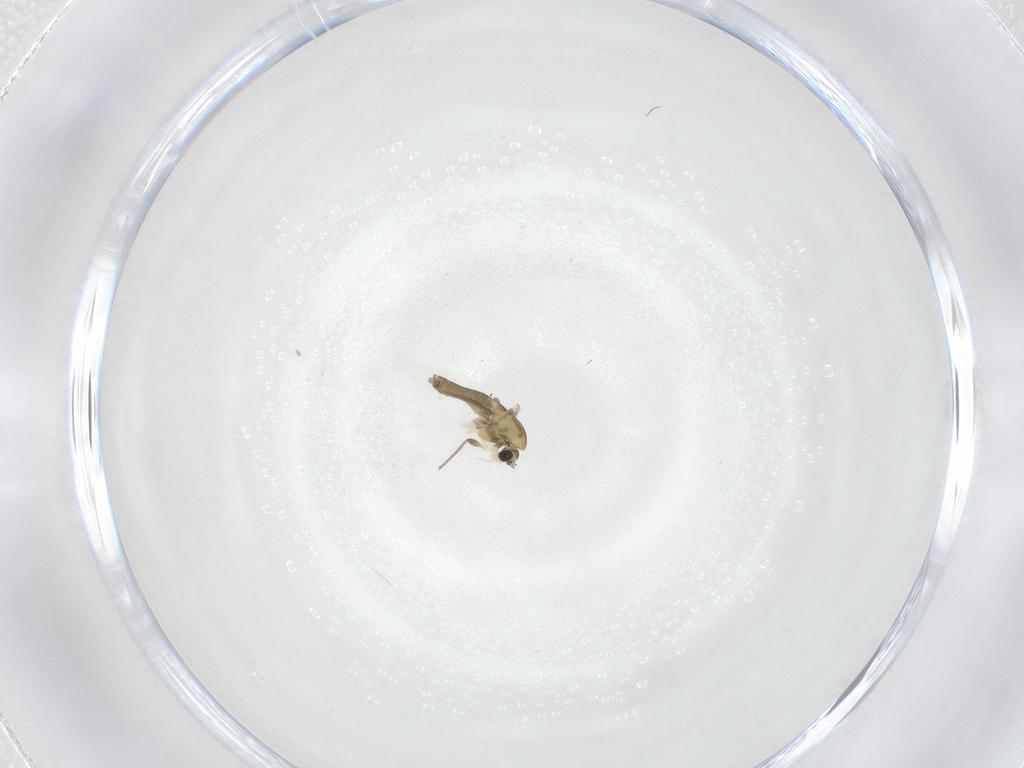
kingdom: Animalia
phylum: Arthropoda
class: Insecta
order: Diptera
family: Chironomidae
